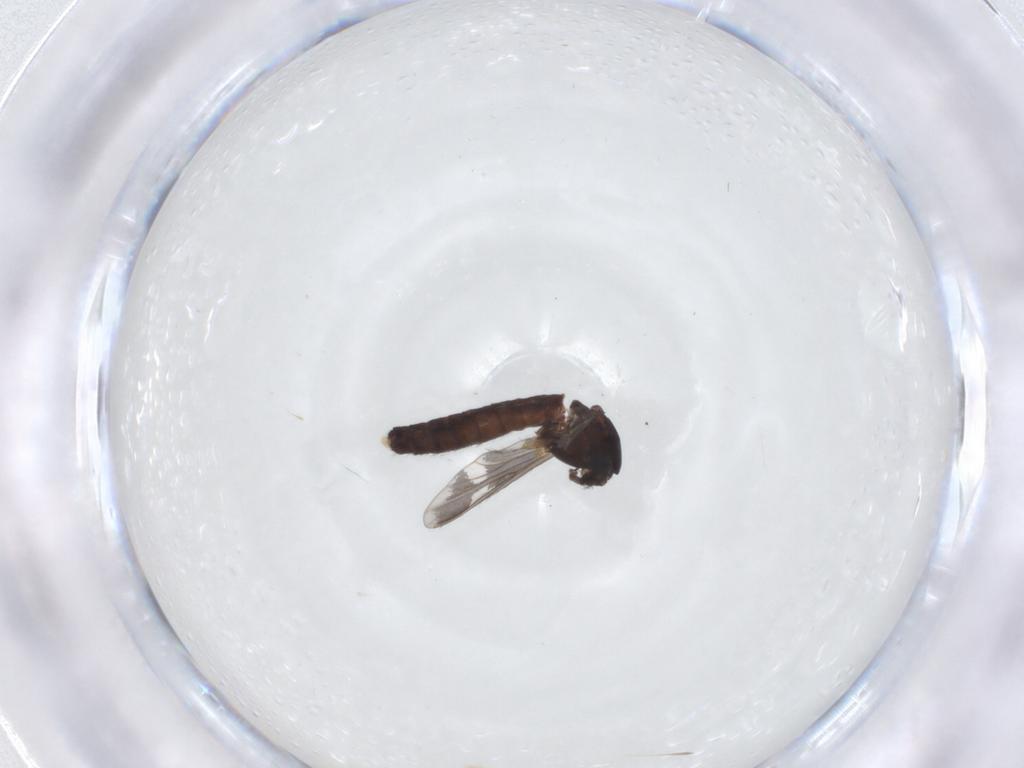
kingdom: Animalia
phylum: Arthropoda
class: Insecta
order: Diptera
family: Chironomidae
